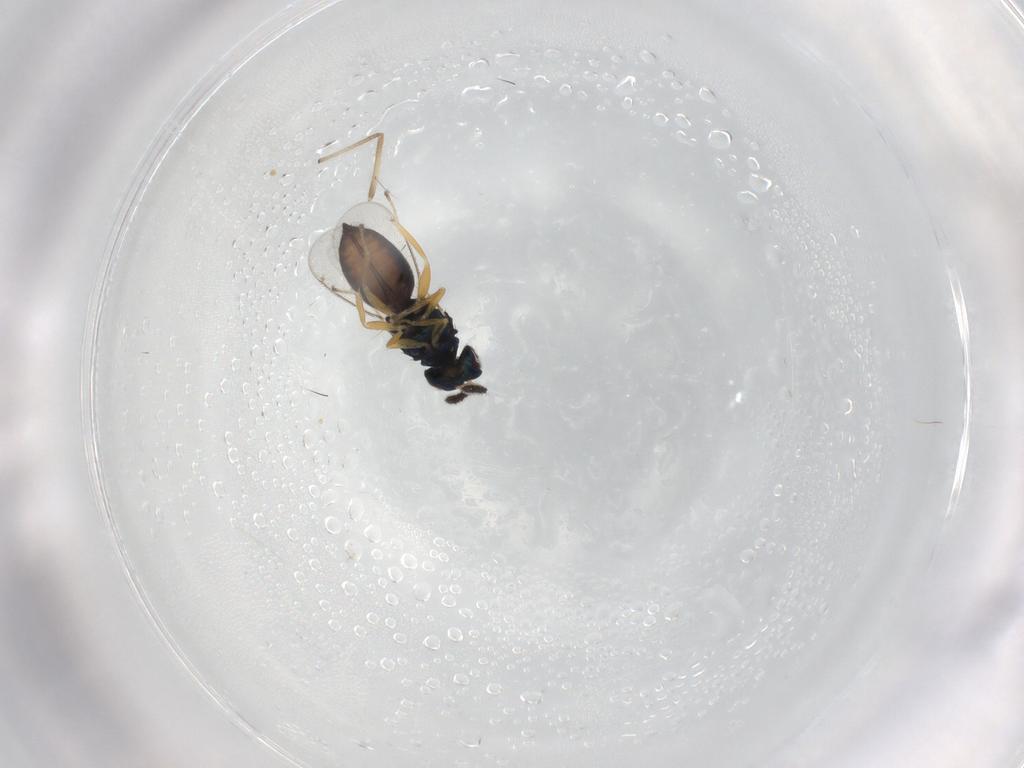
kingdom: Animalia
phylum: Arthropoda
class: Insecta
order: Hymenoptera
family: Eulophidae
